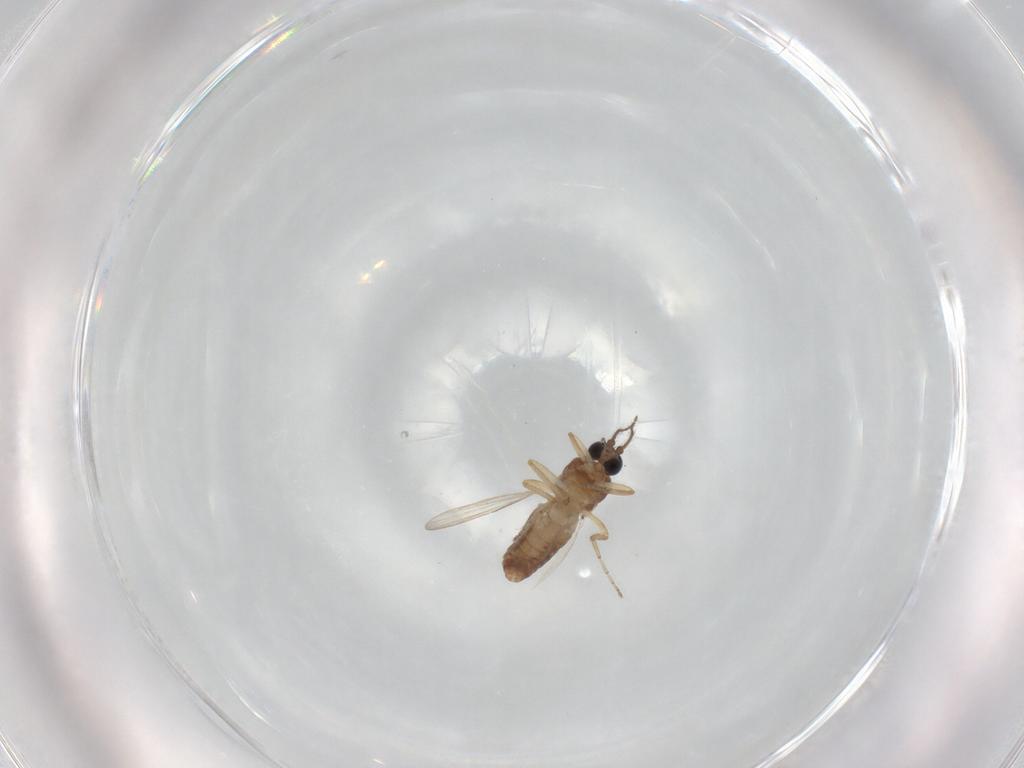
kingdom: Animalia
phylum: Arthropoda
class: Insecta
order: Diptera
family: Ceratopogonidae
